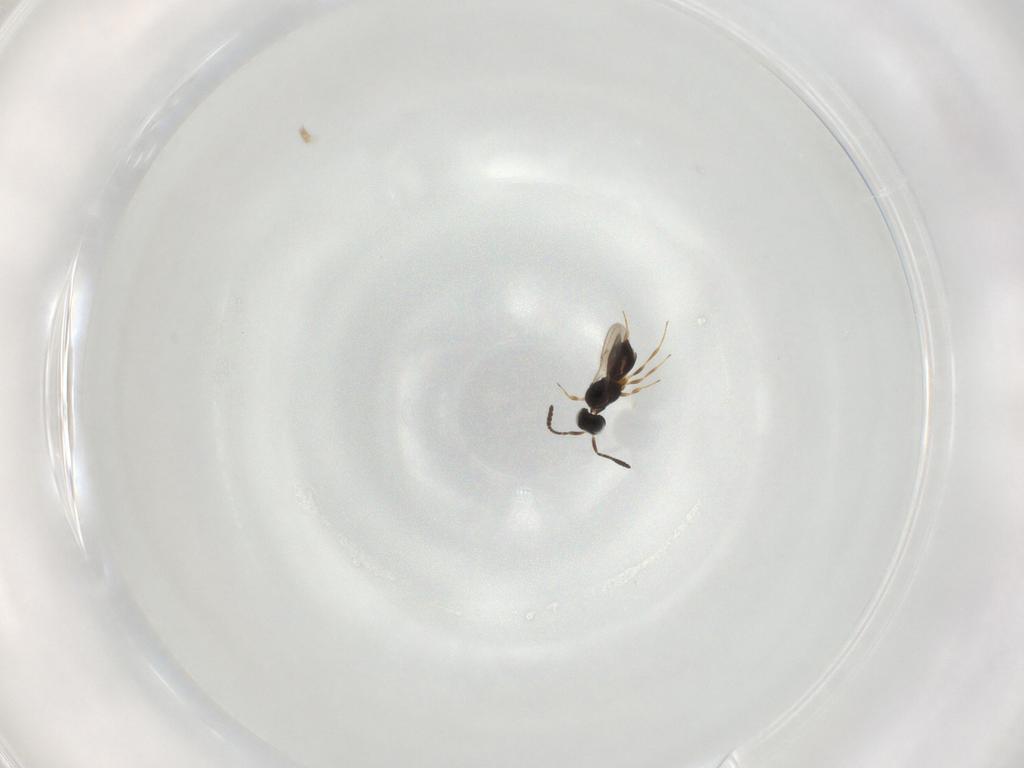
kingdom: Animalia
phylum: Arthropoda
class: Insecta
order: Hymenoptera
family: Scelionidae
